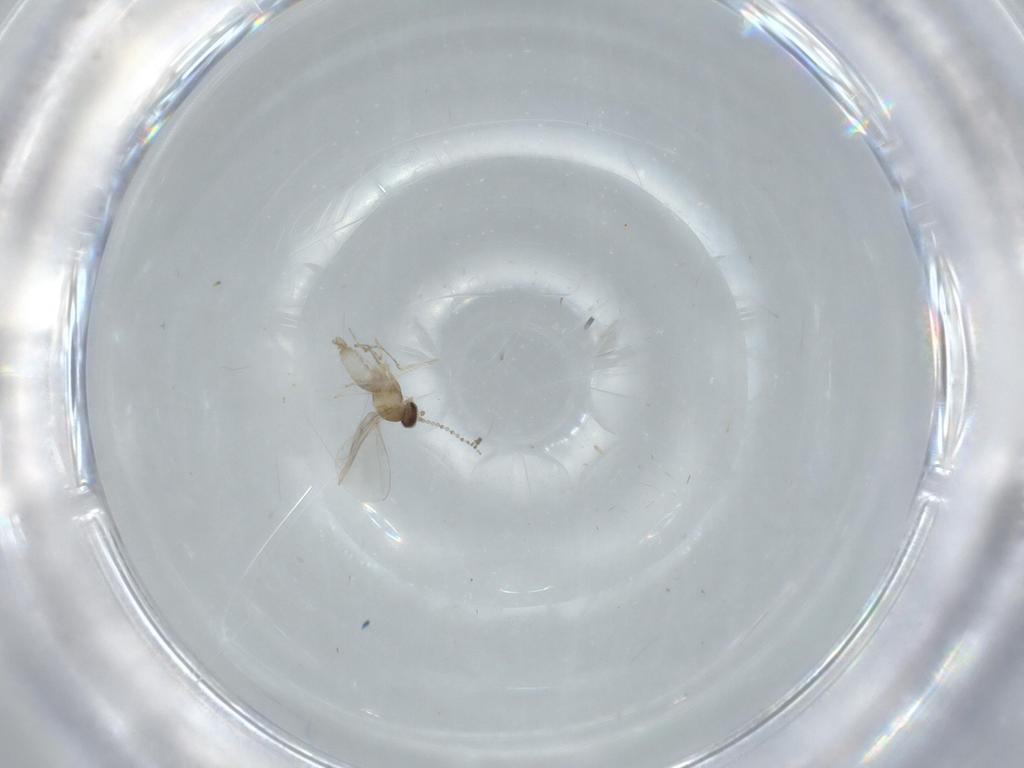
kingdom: Animalia
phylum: Arthropoda
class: Insecta
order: Diptera
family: Cecidomyiidae
